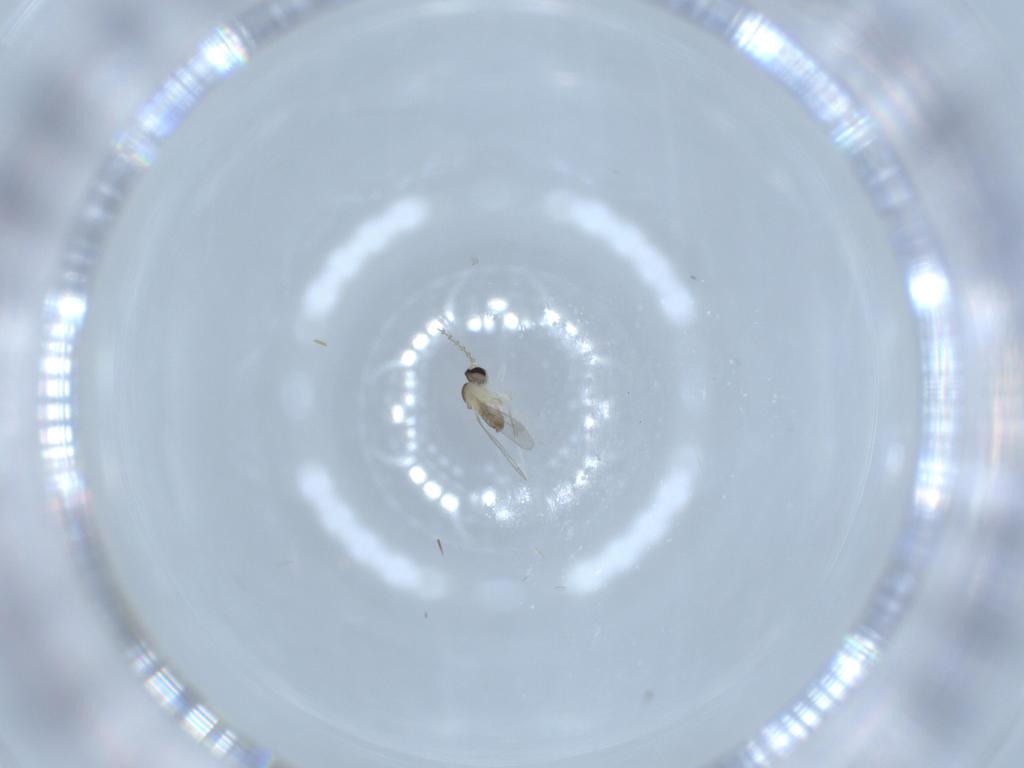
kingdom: Animalia
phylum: Arthropoda
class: Insecta
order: Diptera
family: Cecidomyiidae
